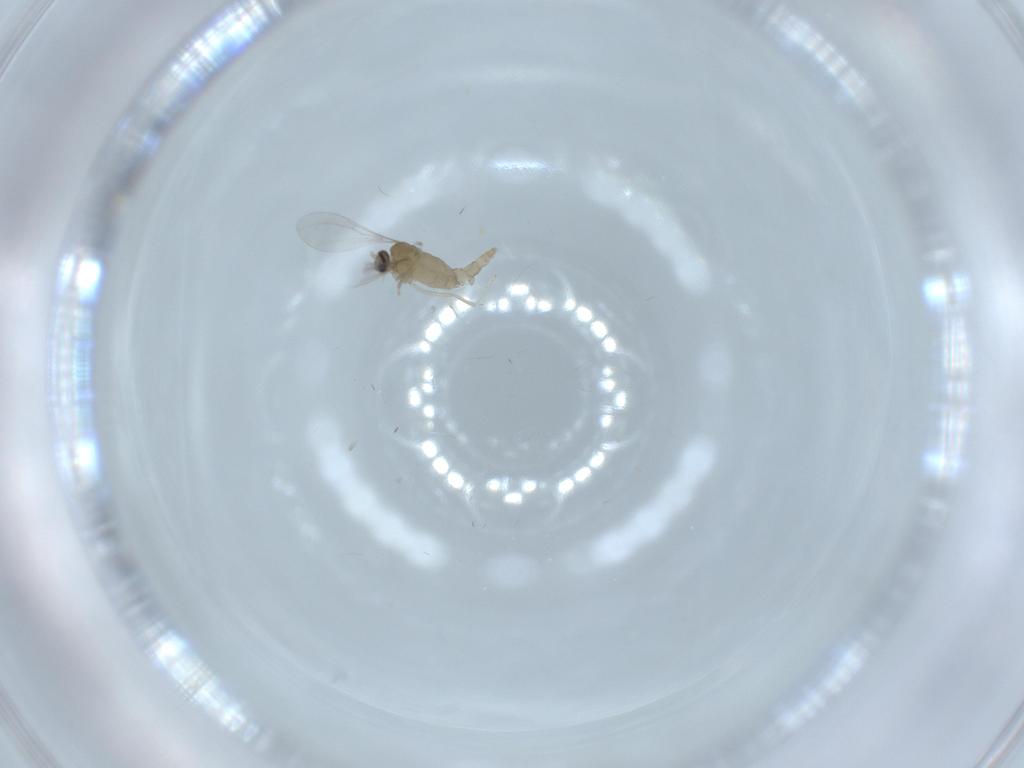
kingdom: Animalia
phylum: Arthropoda
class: Insecta
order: Diptera
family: Cecidomyiidae
